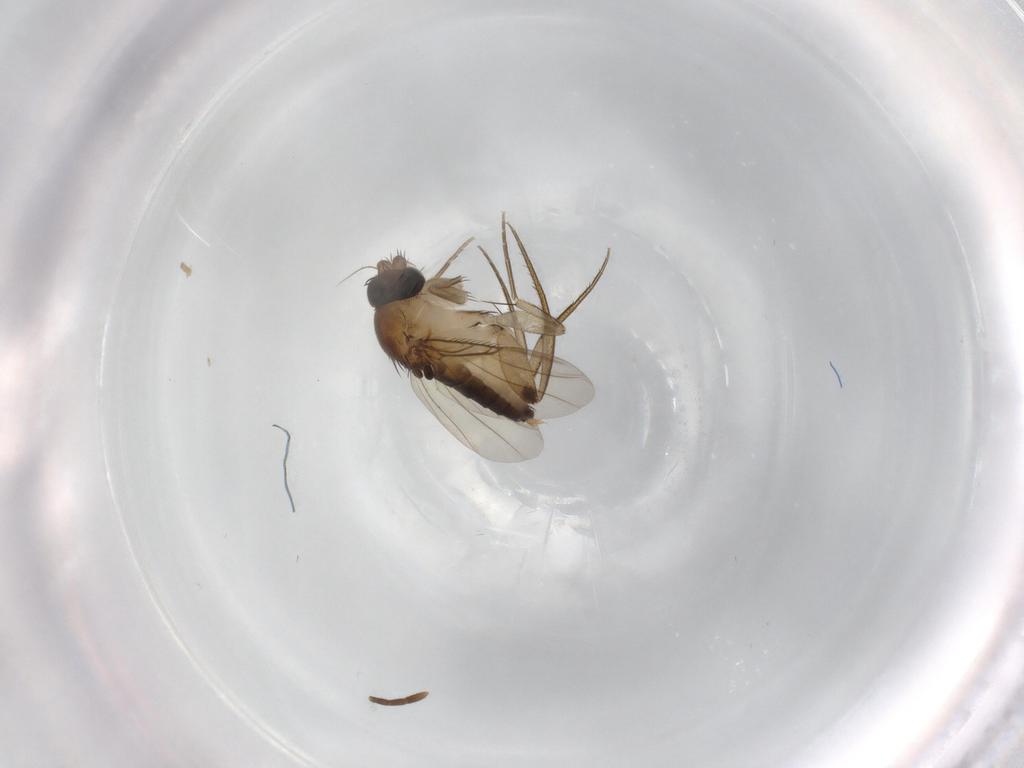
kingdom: Animalia
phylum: Arthropoda
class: Insecta
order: Diptera
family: Phoridae
